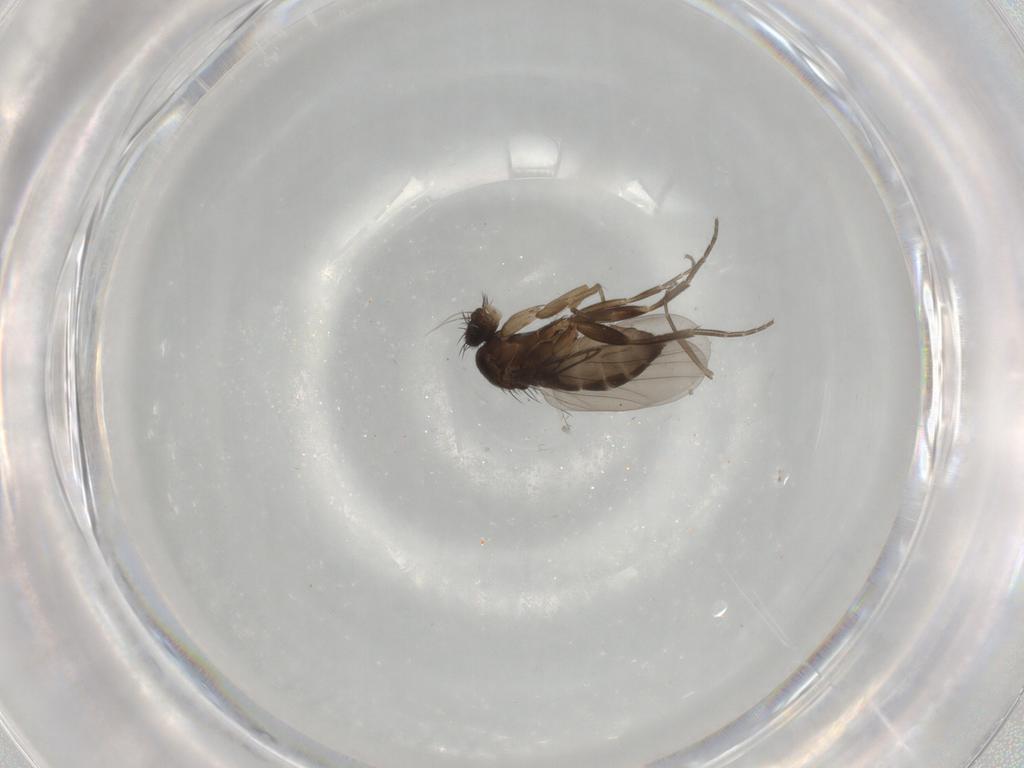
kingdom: Animalia
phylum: Arthropoda
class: Insecta
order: Diptera
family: Phoridae
